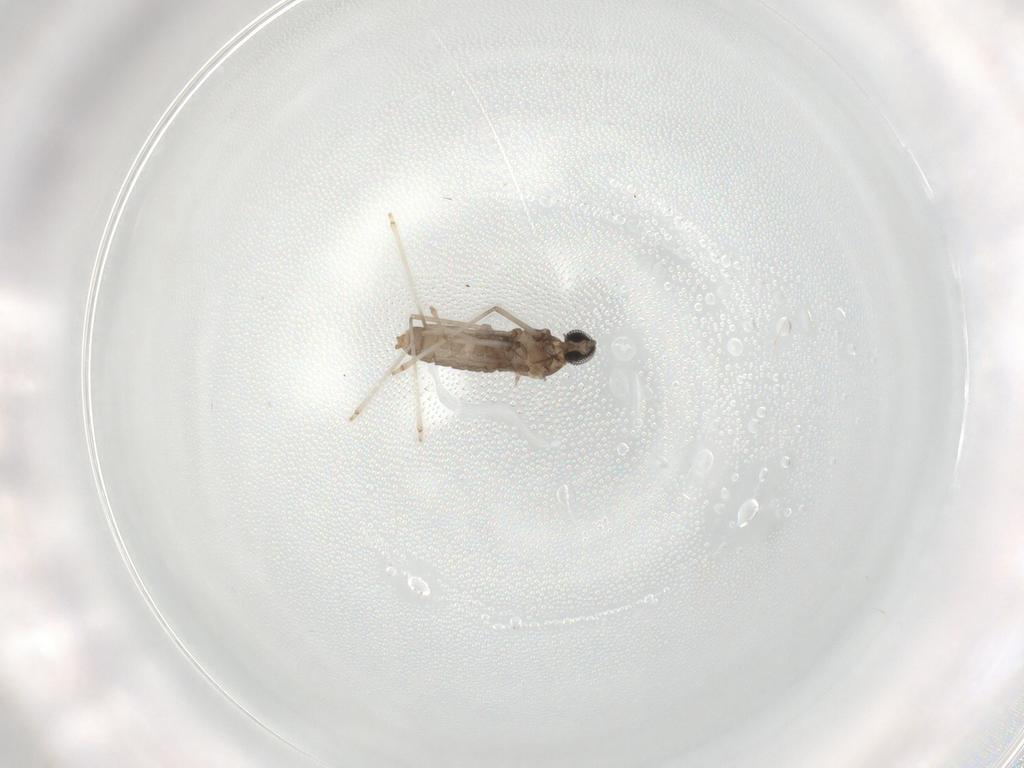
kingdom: Animalia
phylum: Arthropoda
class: Insecta
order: Diptera
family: Cecidomyiidae
